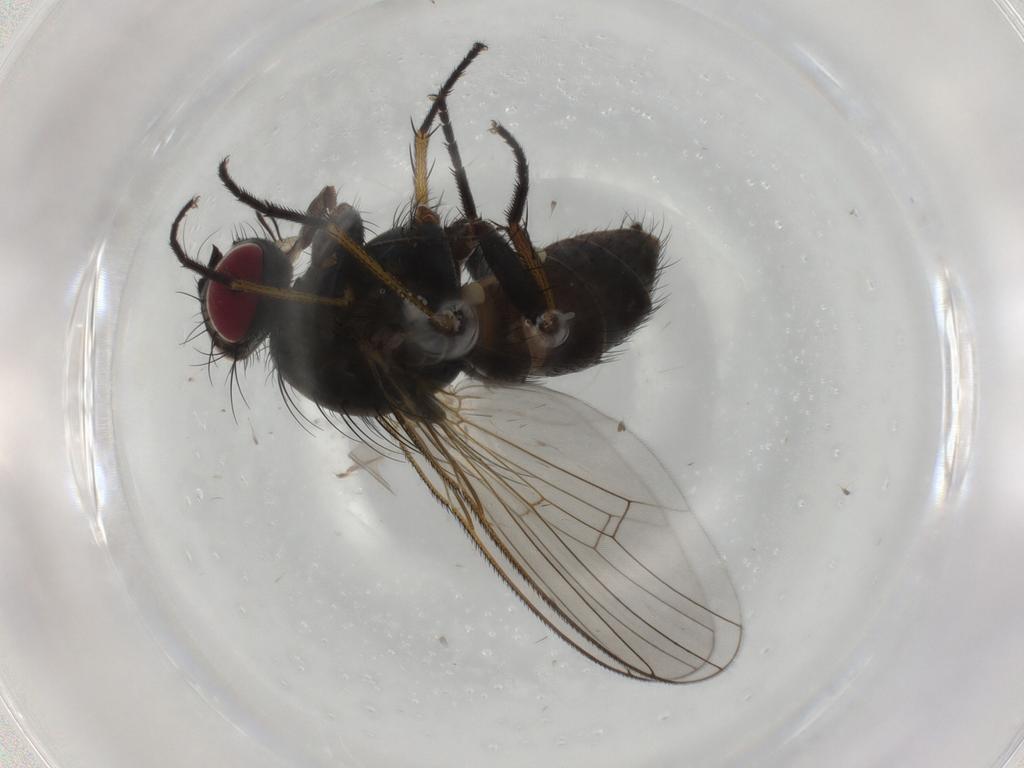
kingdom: Animalia
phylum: Arthropoda
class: Insecta
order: Diptera
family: Muscidae
